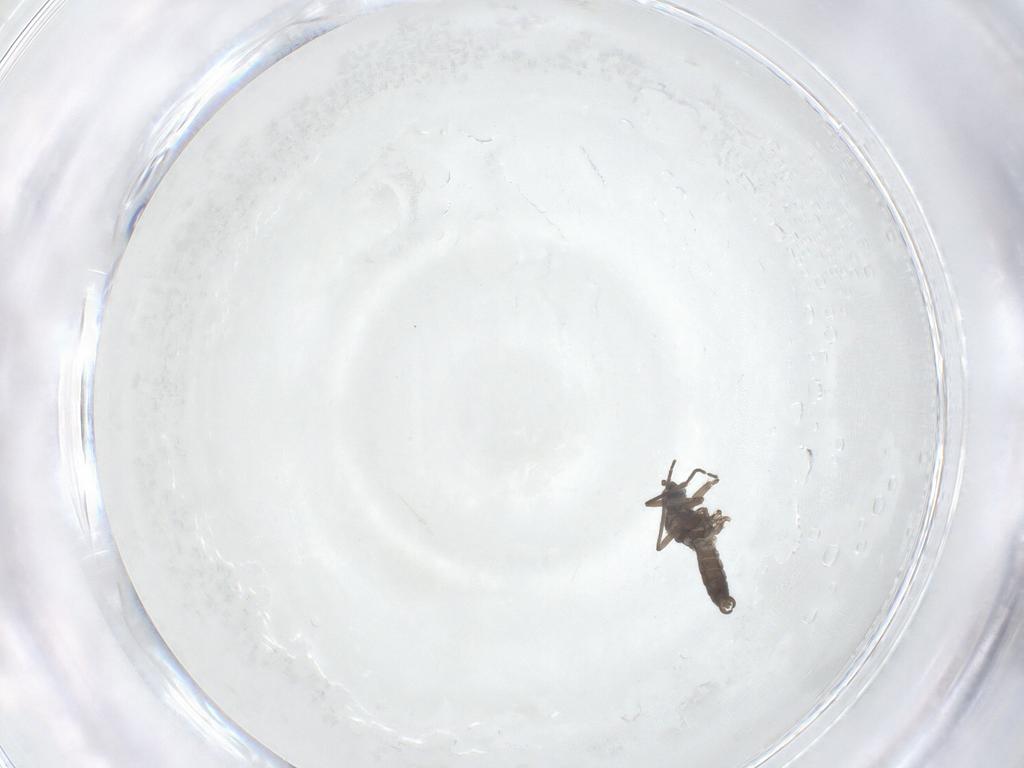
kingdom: Animalia
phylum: Arthropoda
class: Insecta
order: Diptera
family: Sciaridae
